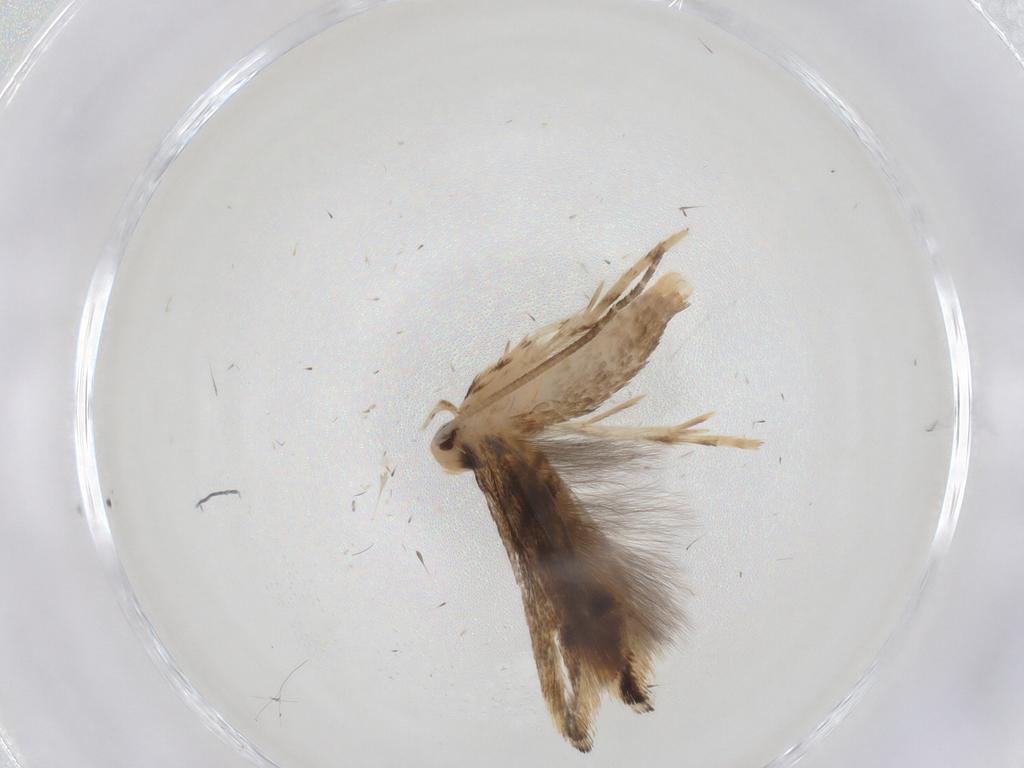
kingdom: Animalia
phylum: Arthropoda
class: Insecta
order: Lepidoptera
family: Momphidae
